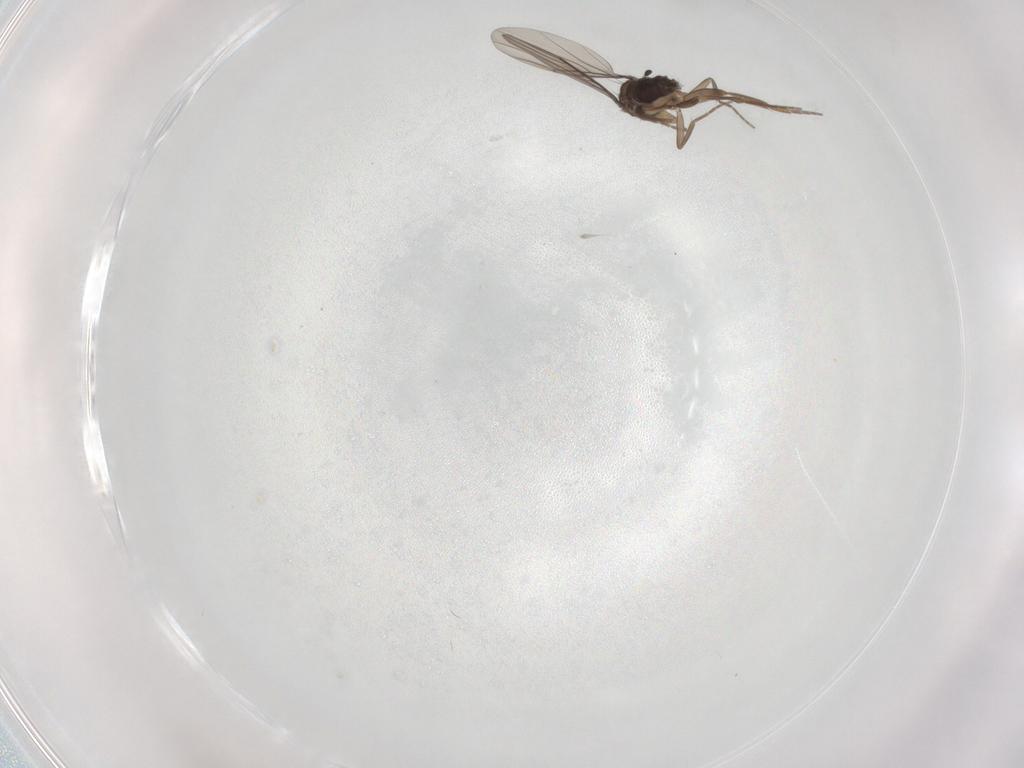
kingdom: Animalia
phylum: Arthropoda
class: Insecta
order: Diptera
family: Phoridae
